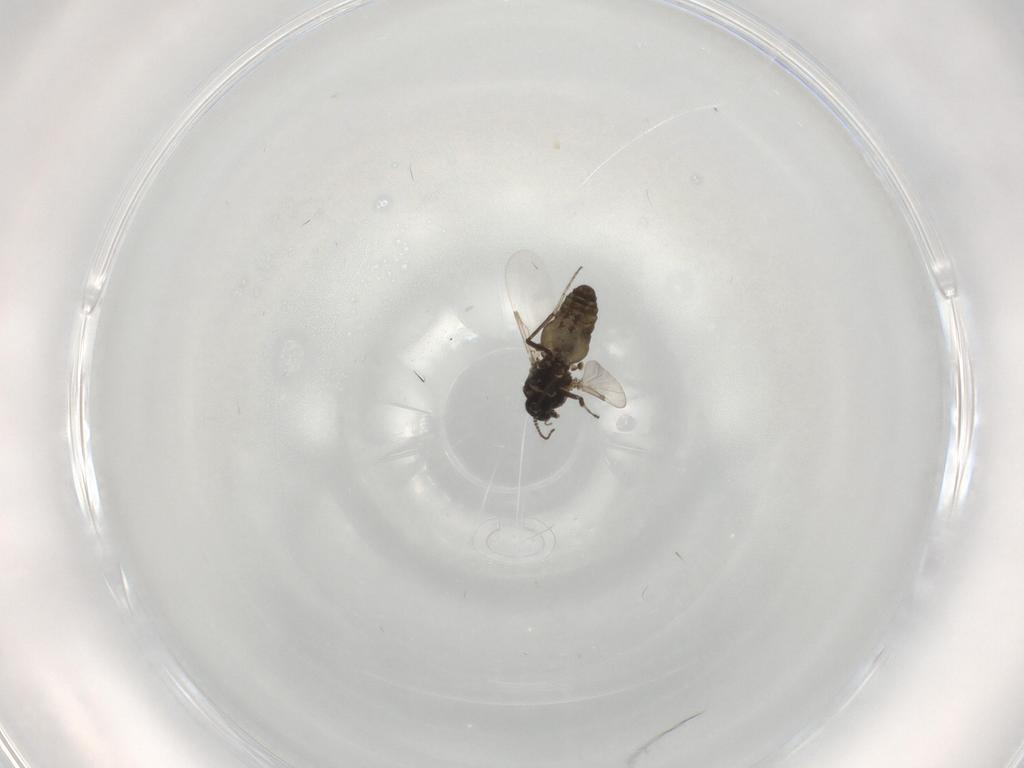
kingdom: Animalia
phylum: Arthropoda
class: Insecta
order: Diptera
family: Ceratopogonidae
